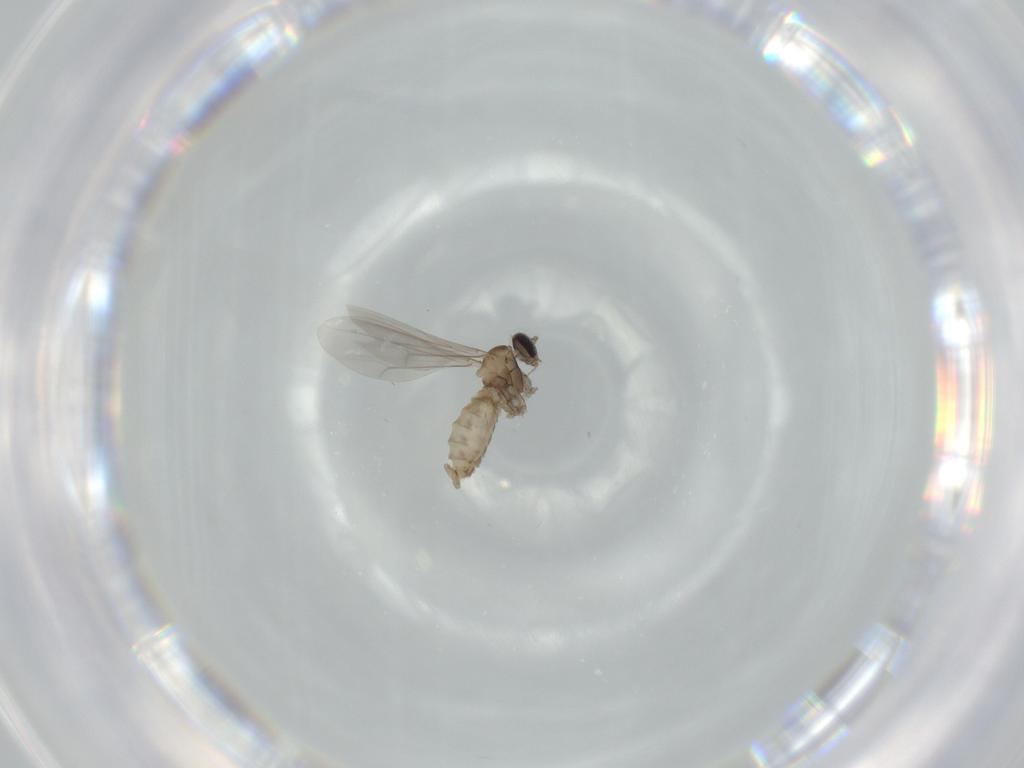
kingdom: Animalia
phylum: Arthropoda
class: Insecta
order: Diptera
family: Cecidomyiidae
